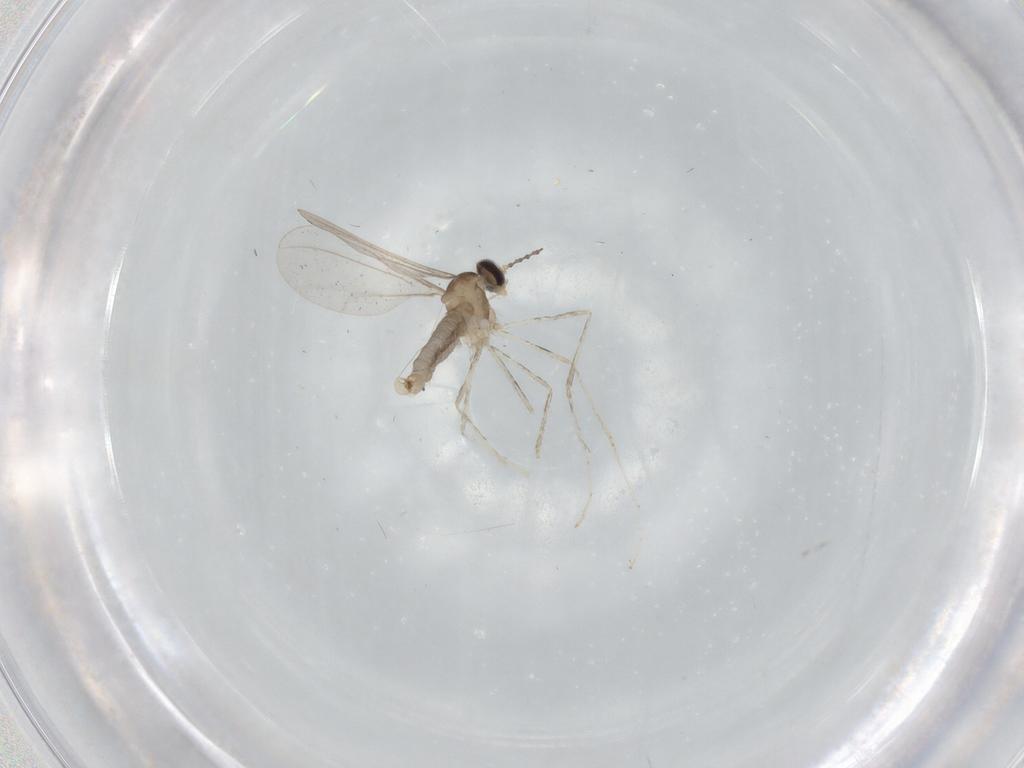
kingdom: Animalia
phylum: Arthropoda
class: Insecta
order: Diptera
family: Cecidomyiidae
